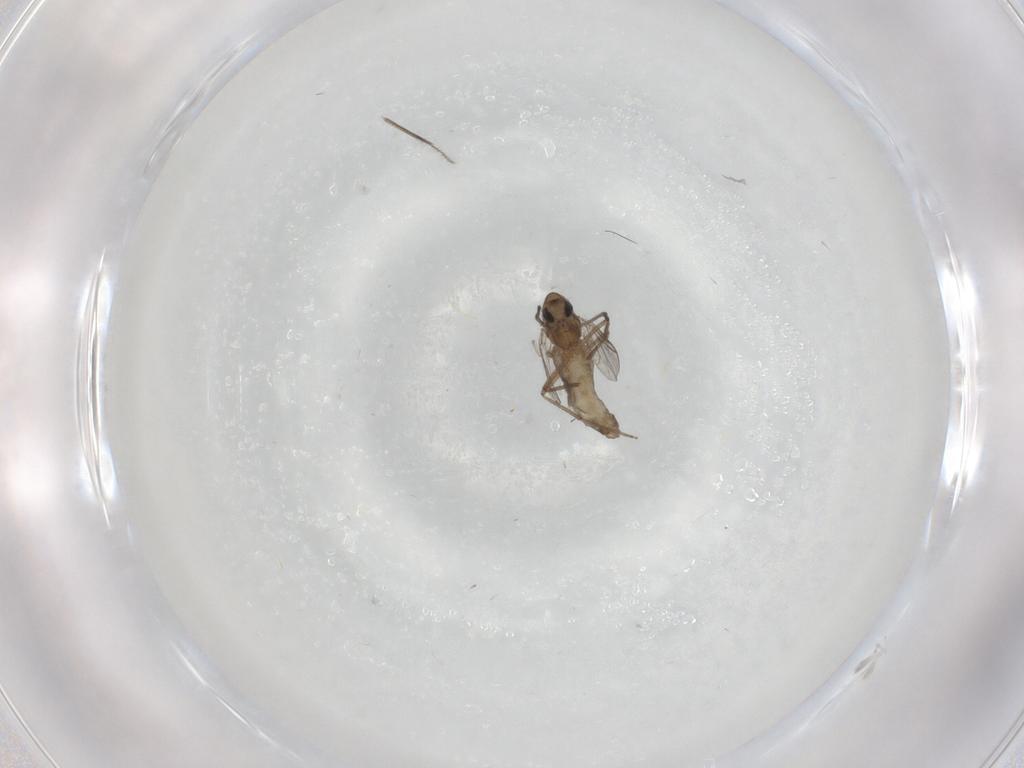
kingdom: Animalia
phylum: Arthropoda
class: Insecta
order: Diptera
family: Chironomidae
